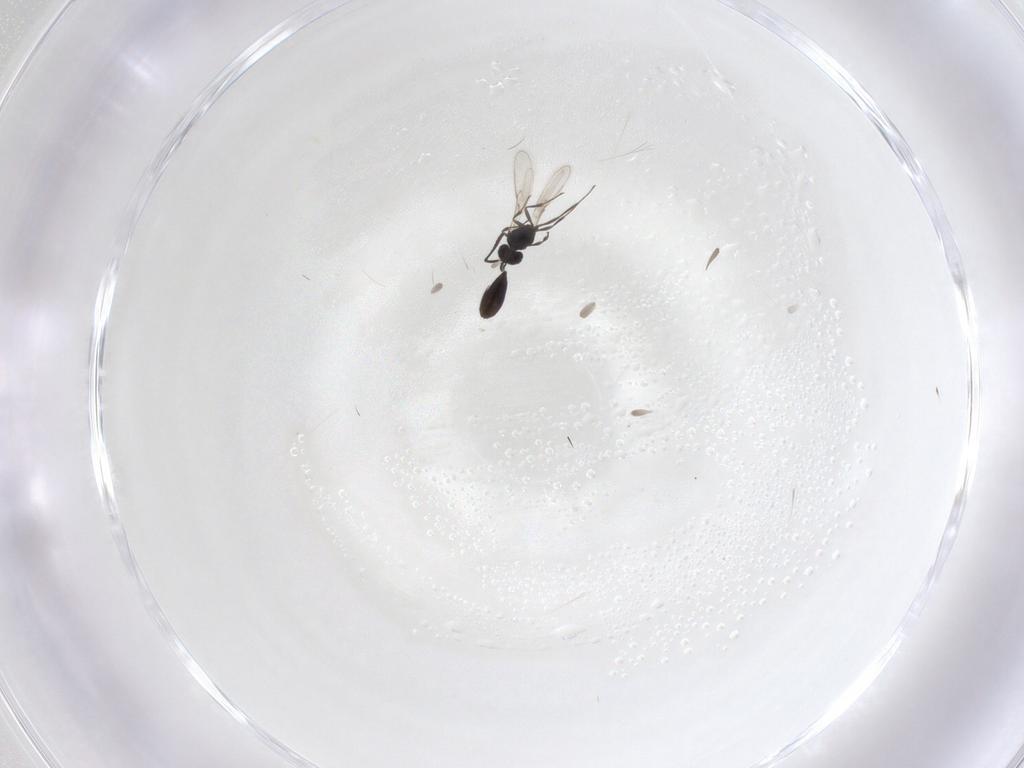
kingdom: Animalia
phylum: Arthropoda
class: Insecta
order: Hymenoptera
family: Scelionidae
